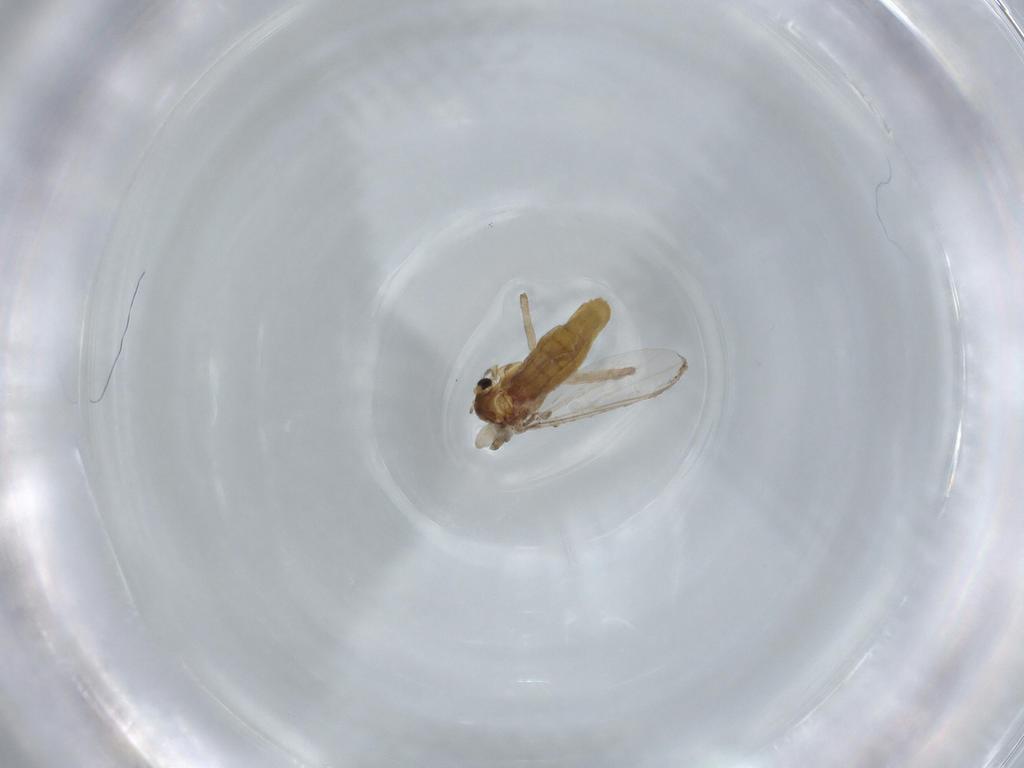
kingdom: Animalia
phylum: Arthropoda
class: Insecta
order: Diptera
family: Chironomidae
